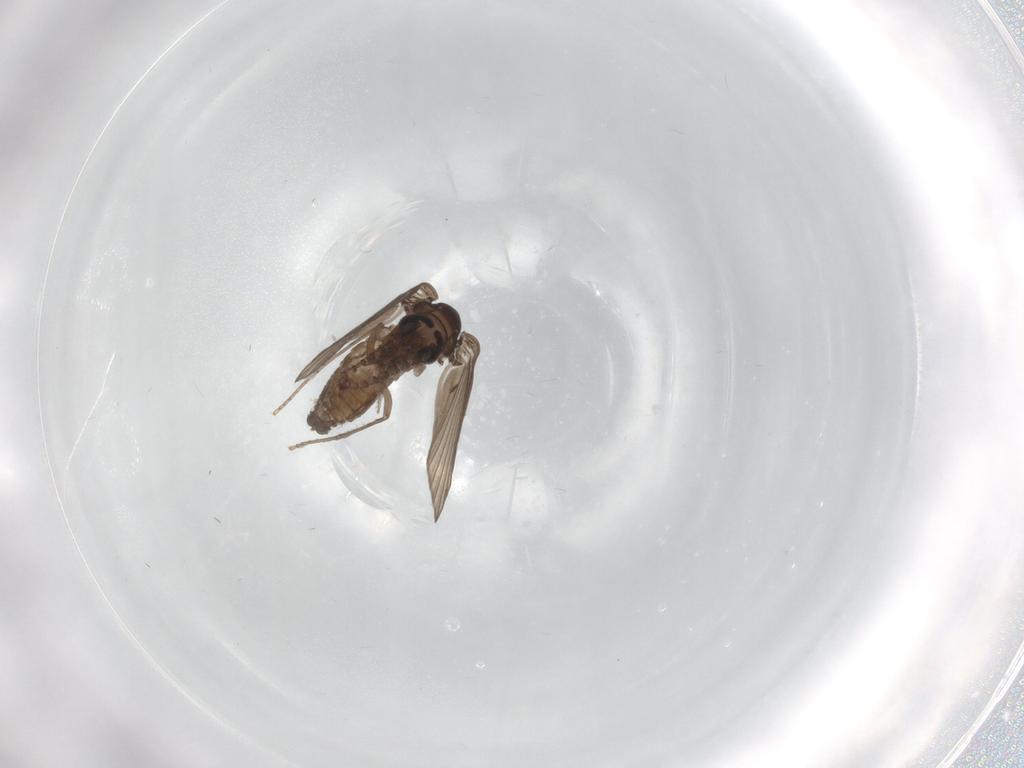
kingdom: Animalia
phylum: Arthropoda
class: Insecta
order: Diptera
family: Psychodidae
